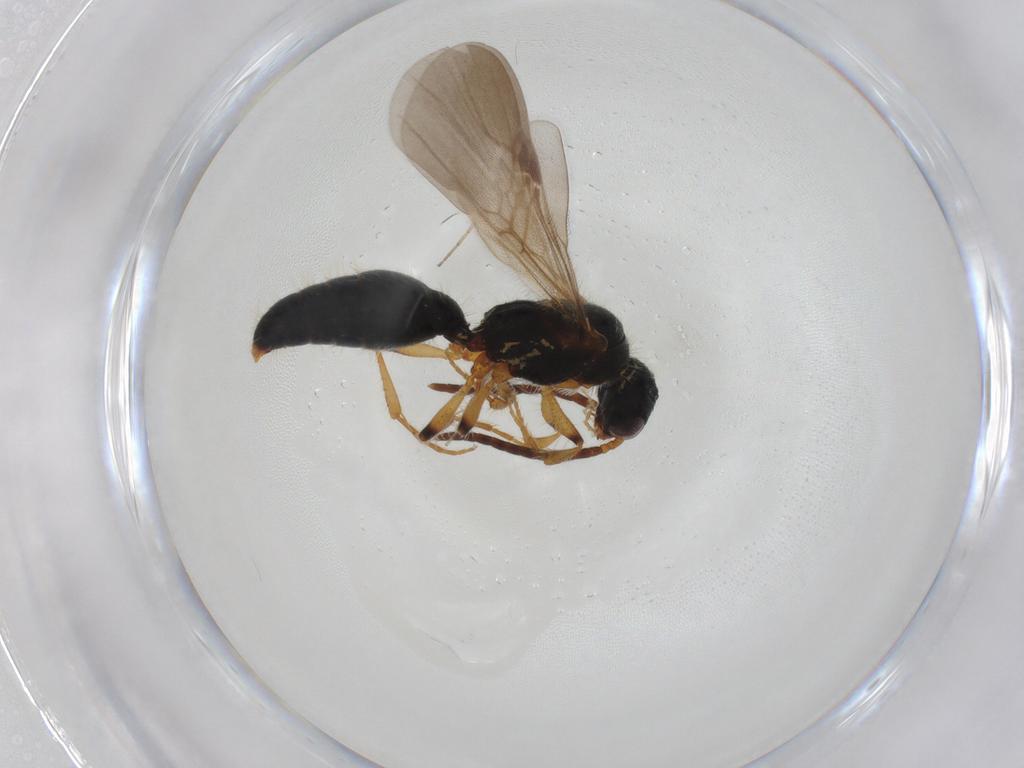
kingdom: Animalia
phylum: Arthropoda
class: Insecta
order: Hymenoptera
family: Mutillidae
